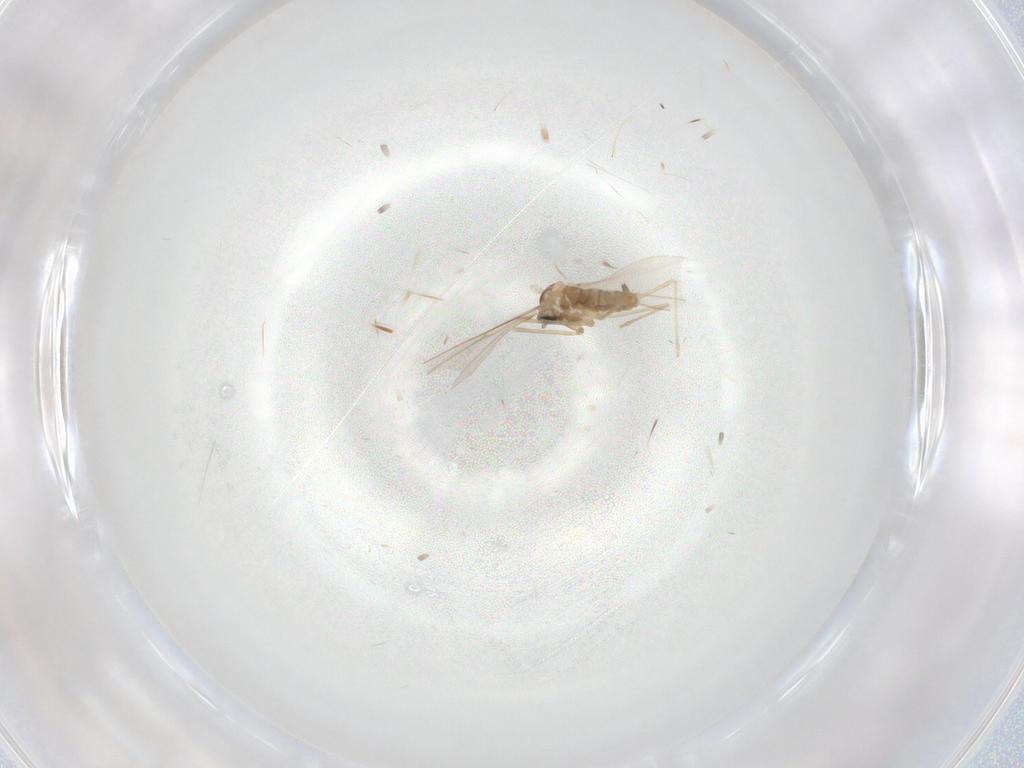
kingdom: Animalia
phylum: Arthropoda
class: Insecta
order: Diptera
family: Cecidomyiidae
